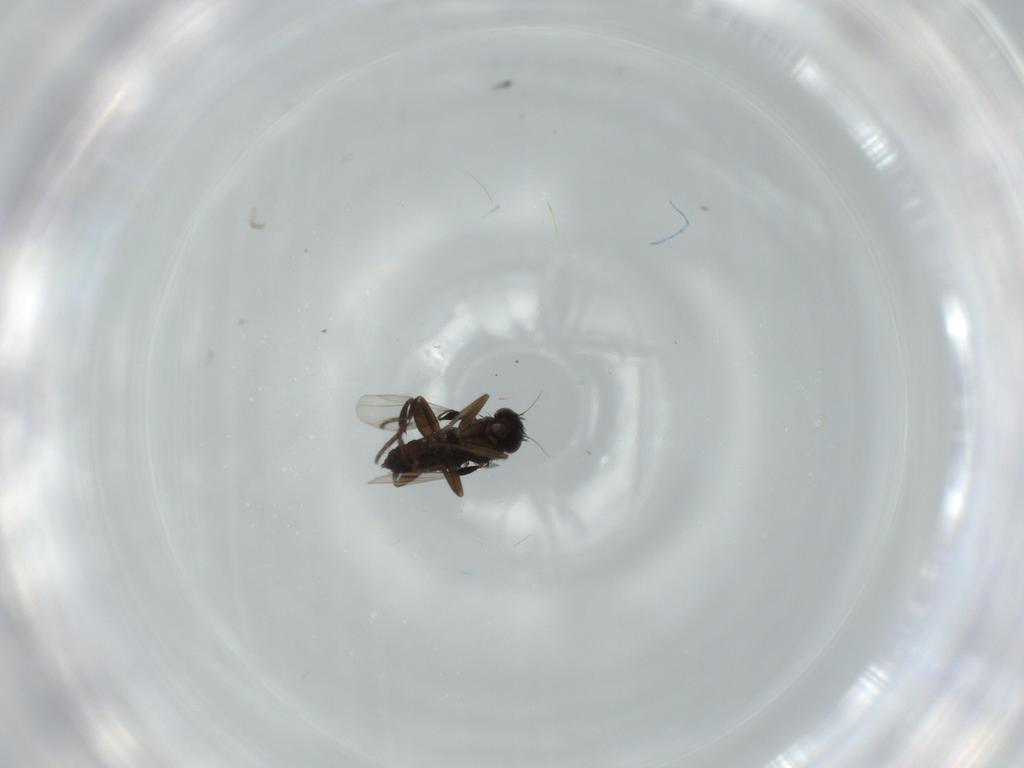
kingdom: Animalia
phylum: Arthropoda
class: Insecta
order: Diptera
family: Phoridae
